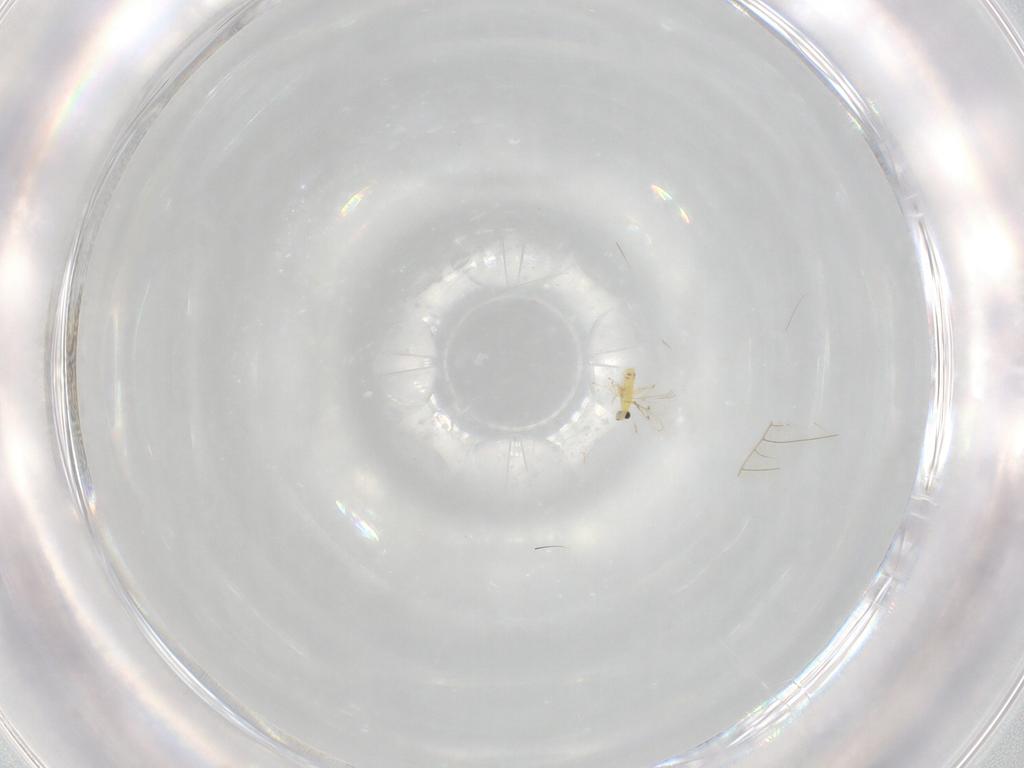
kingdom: Animalia
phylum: Arthropoda
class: Insecta
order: Hymenoptera
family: Trichogrammatidae
